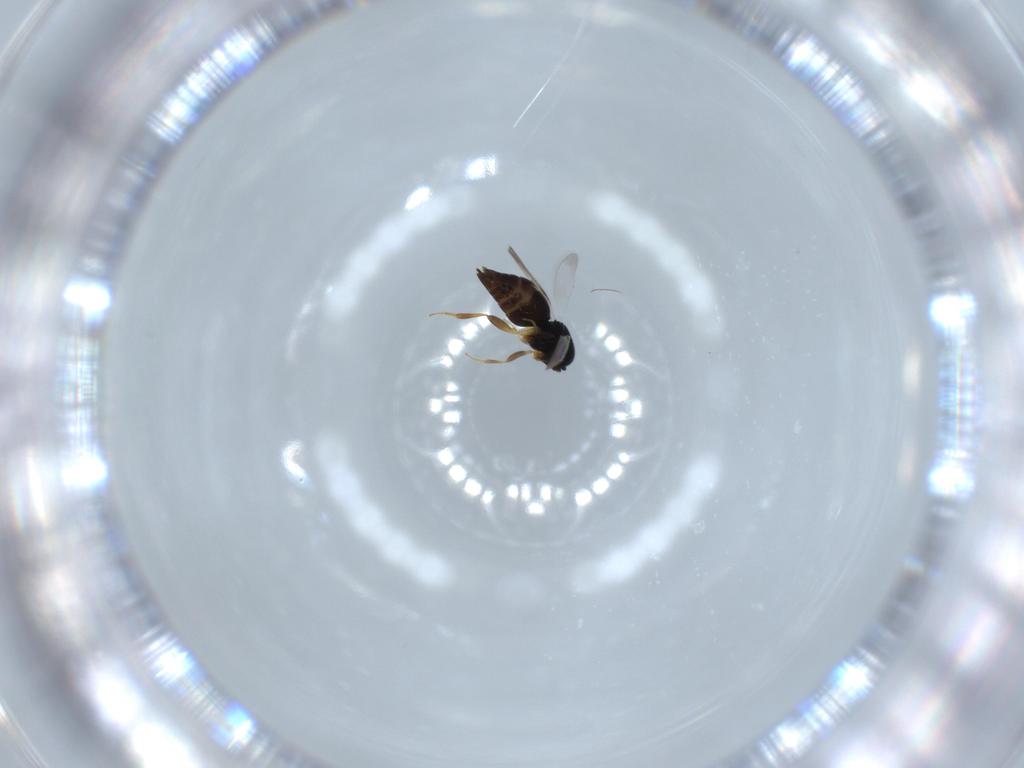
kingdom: Animalia
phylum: Arthropoda
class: Insecta
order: Hymenoptera
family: Ceraphronidae
